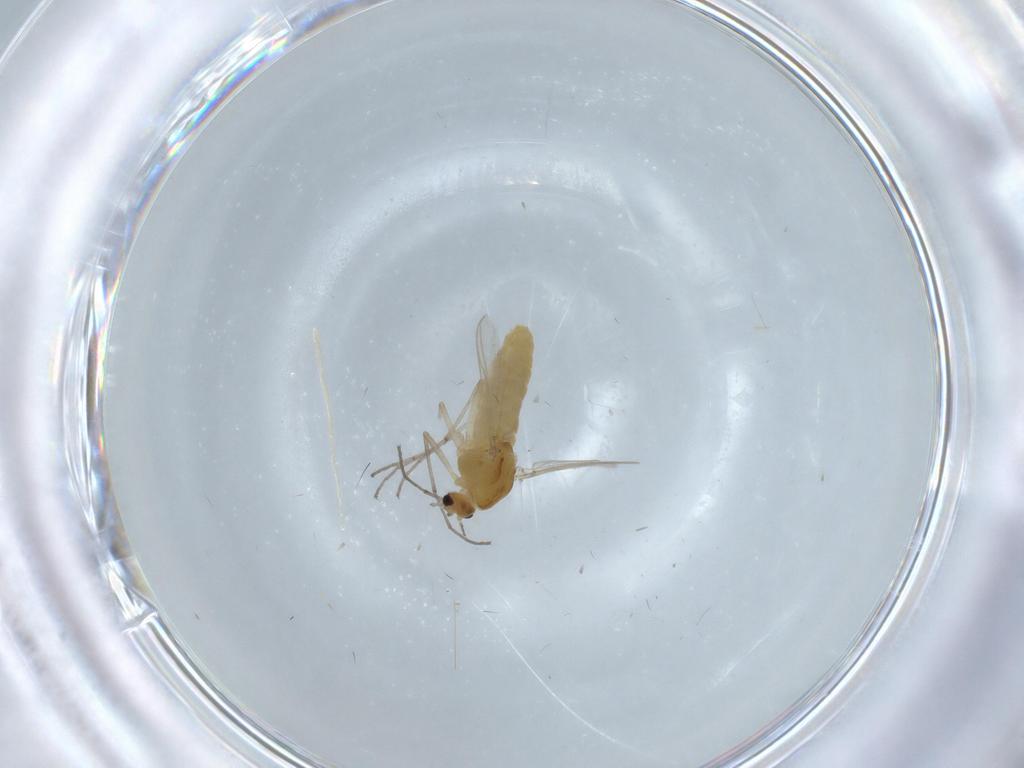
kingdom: Animalia
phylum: Arthropoda
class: Insecta
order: Diptera
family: Chironomidae
